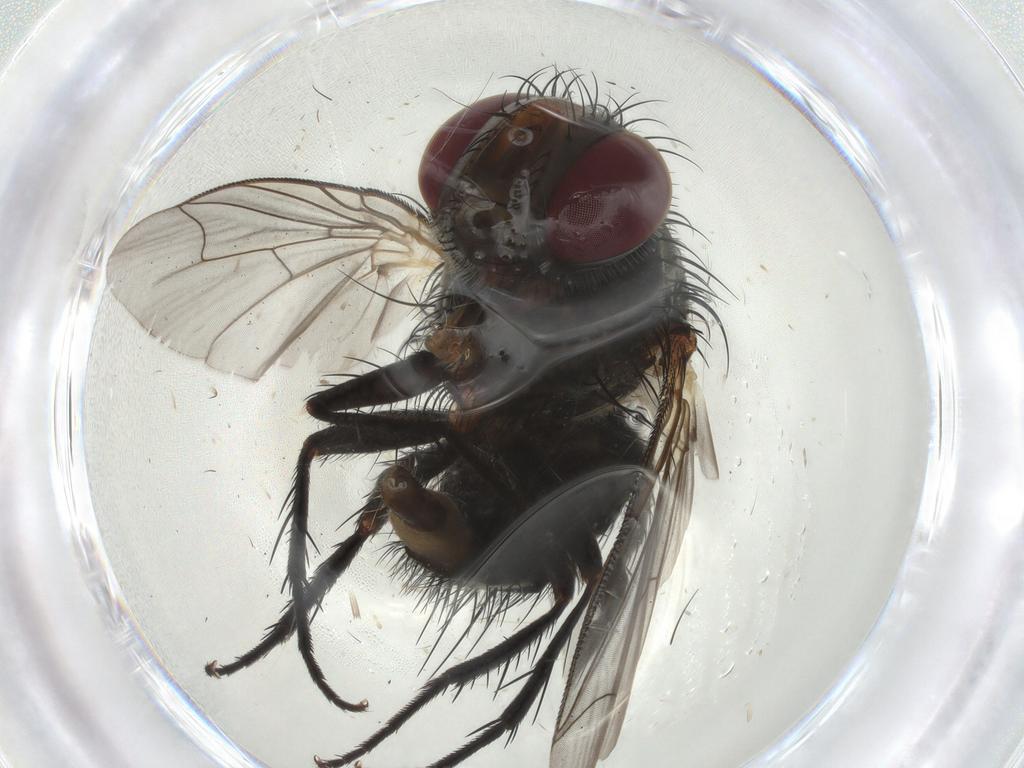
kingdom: Animalia
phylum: Arthropoda
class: Insecta
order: Diptera
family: Tachinidae
